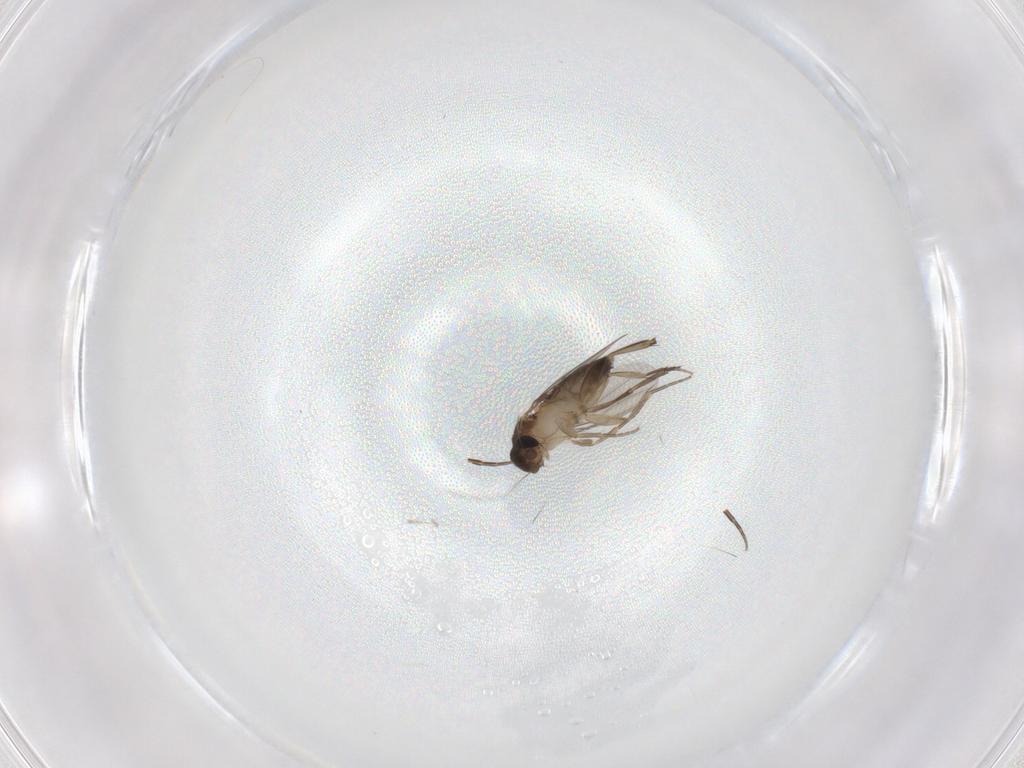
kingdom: Animalia
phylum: Arthropoda
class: Insecta
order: Diptera
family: Phoridae
